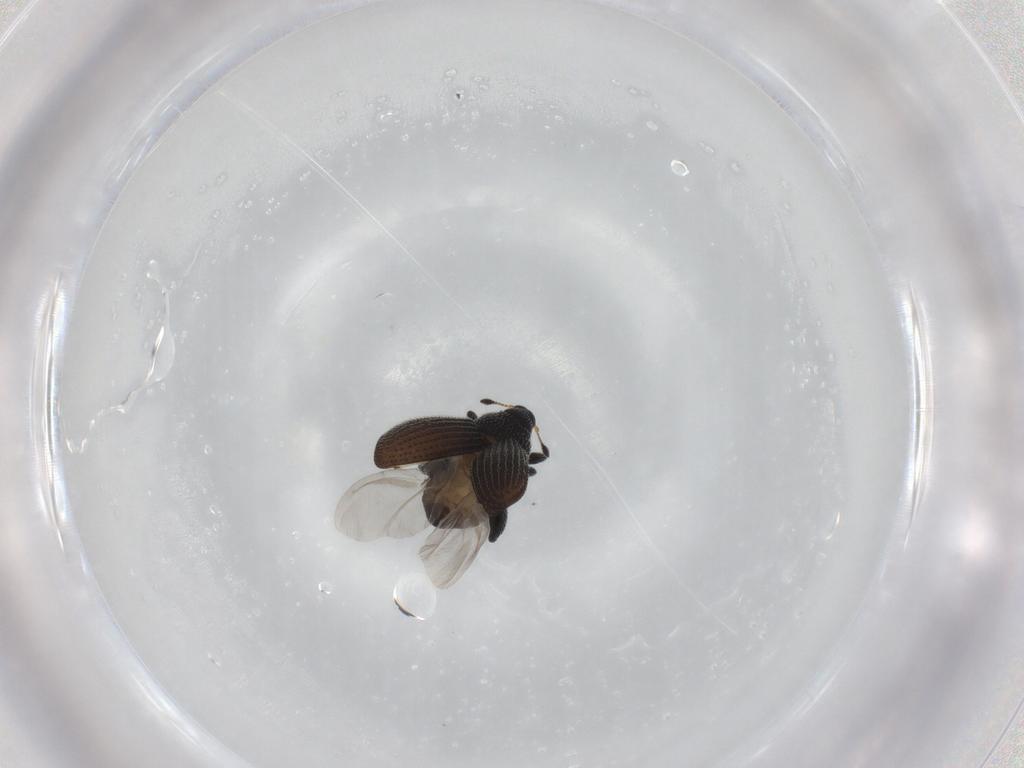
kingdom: Animalia
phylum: Arthropoda
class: Insecta
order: Coleoptera
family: Curculionidae
